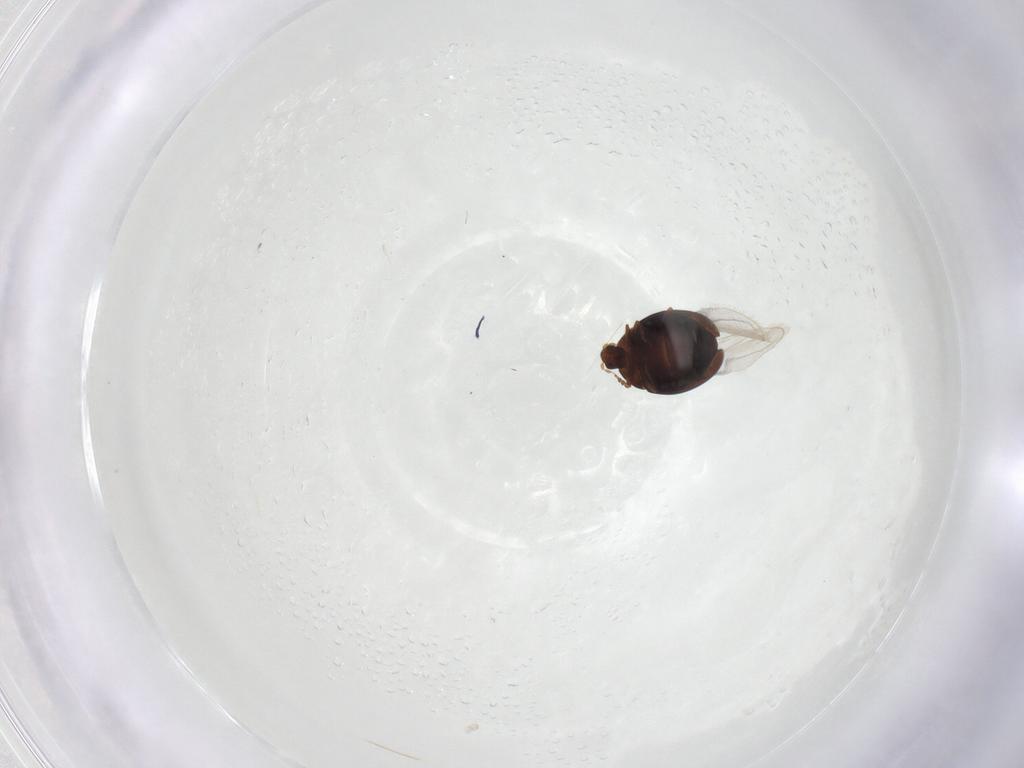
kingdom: Animalia
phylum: Arthropoda
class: Insecta
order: Coleoptera
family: Corylophidae
